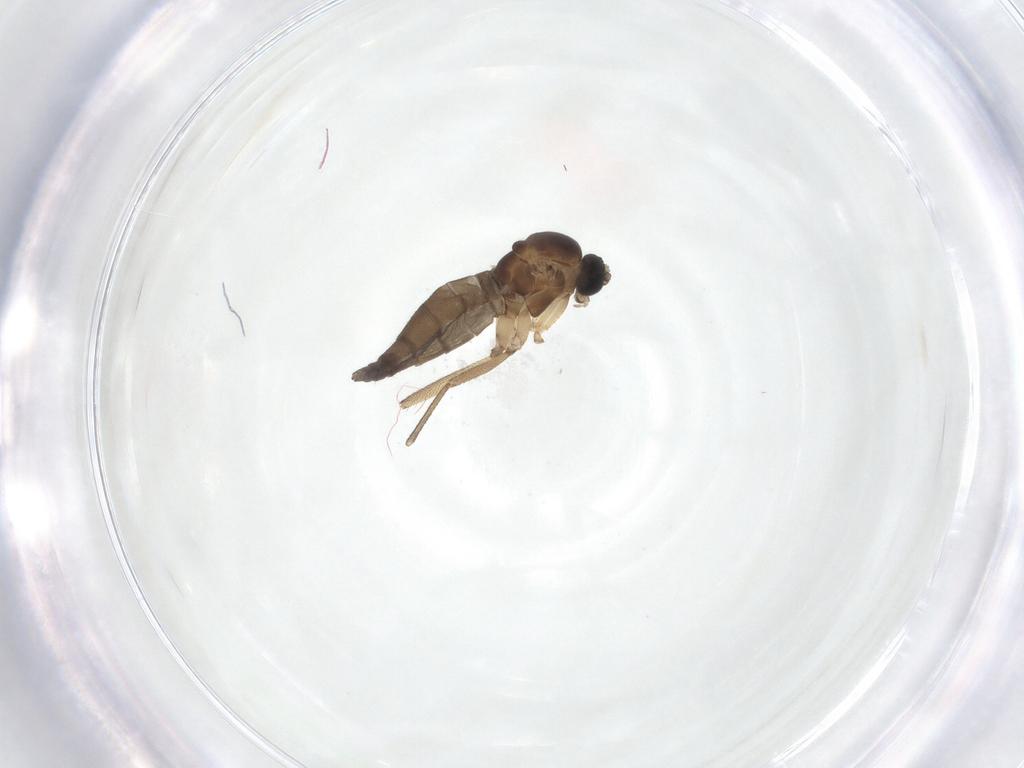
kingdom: Animalia
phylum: Arthropoda
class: Insecta
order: Diptera
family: Sciaridae
